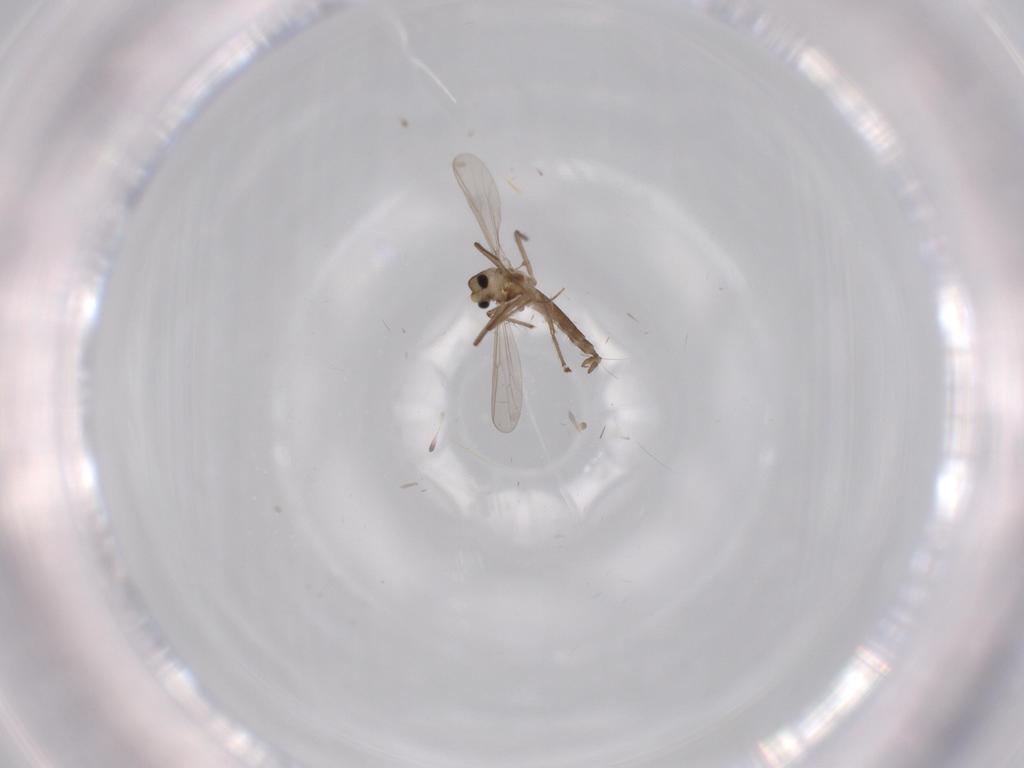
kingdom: Animalia
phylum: Arthropoda
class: Insecta
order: Diptera
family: Chironomidae
